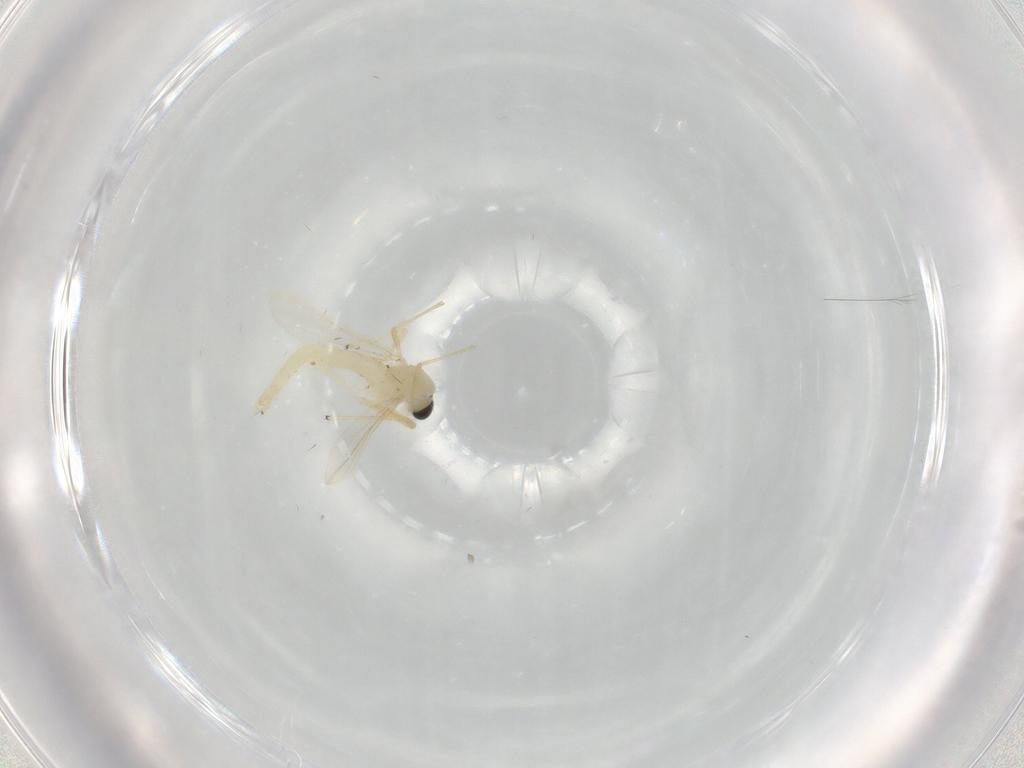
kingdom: Animalia
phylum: Arthropoda
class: Insecta
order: Diptera
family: Chironomidae
